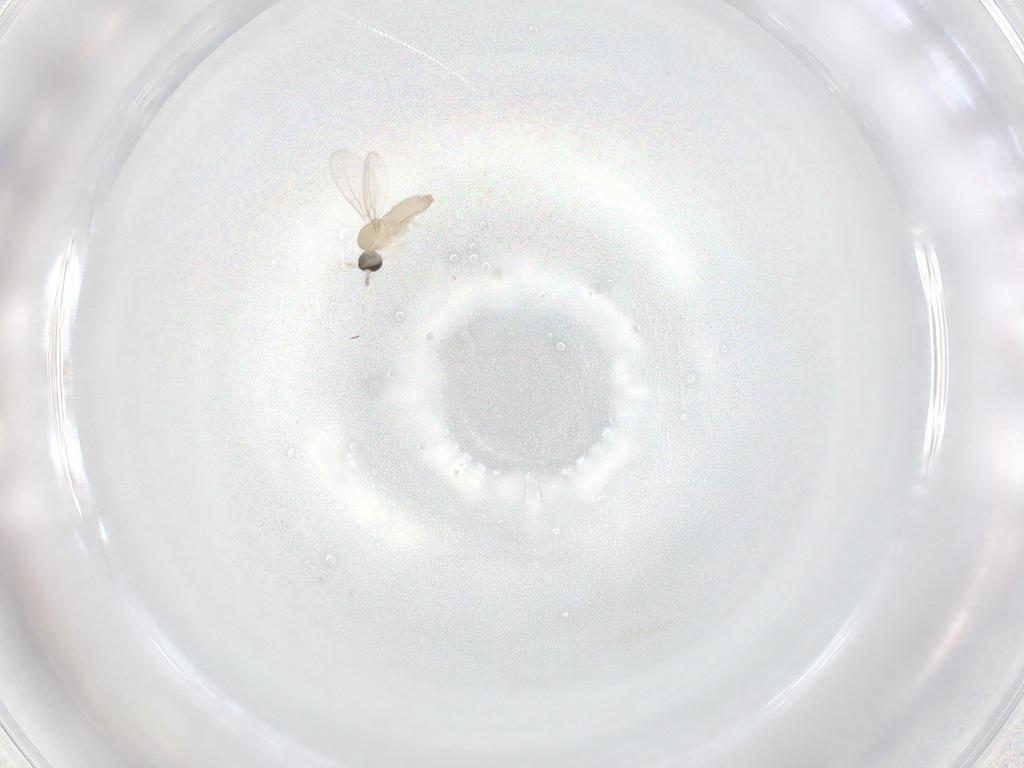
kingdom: Animalia
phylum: Arthropoda
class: Insecta
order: Diptera
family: Cecidomyiidae
